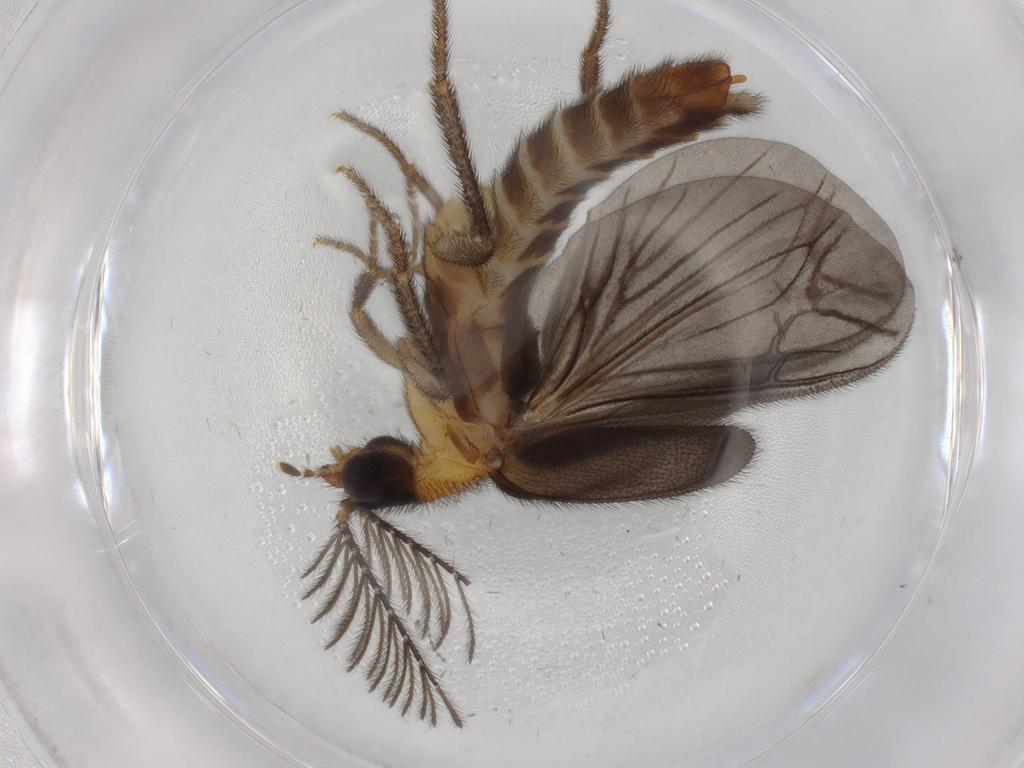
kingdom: Animalia
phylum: Arthropoda
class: Insecta
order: Coleoptera
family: Phengodidae
